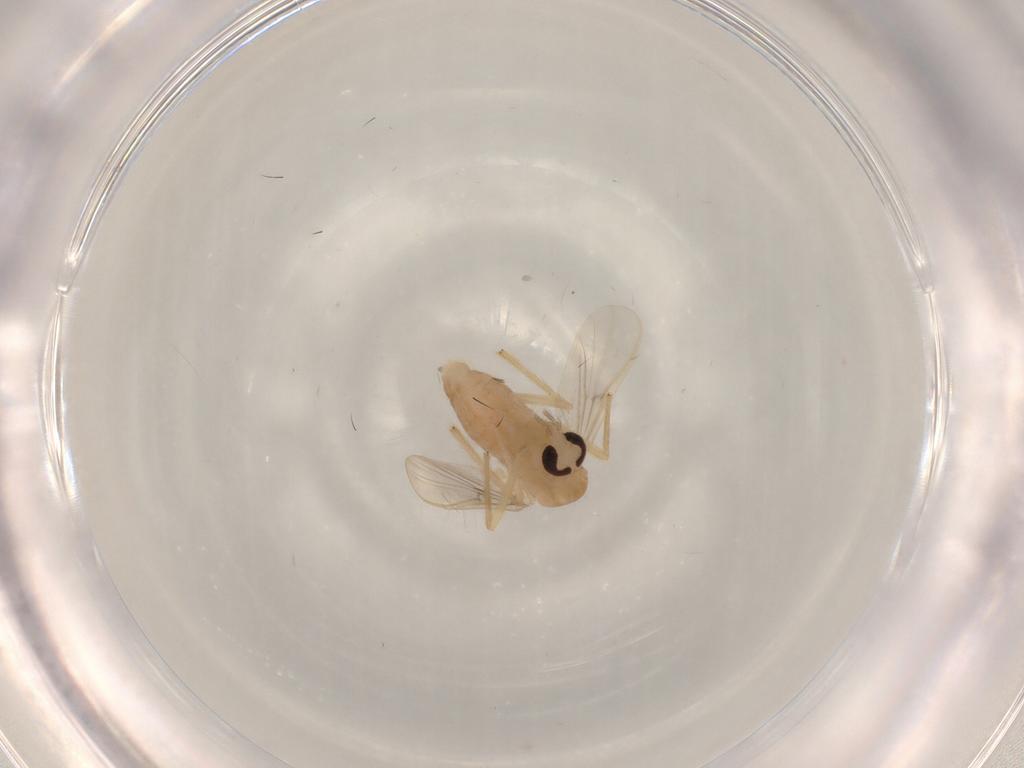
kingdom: Animalia
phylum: Arthropoda
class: Insecta
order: Diptera
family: Chironomidae
